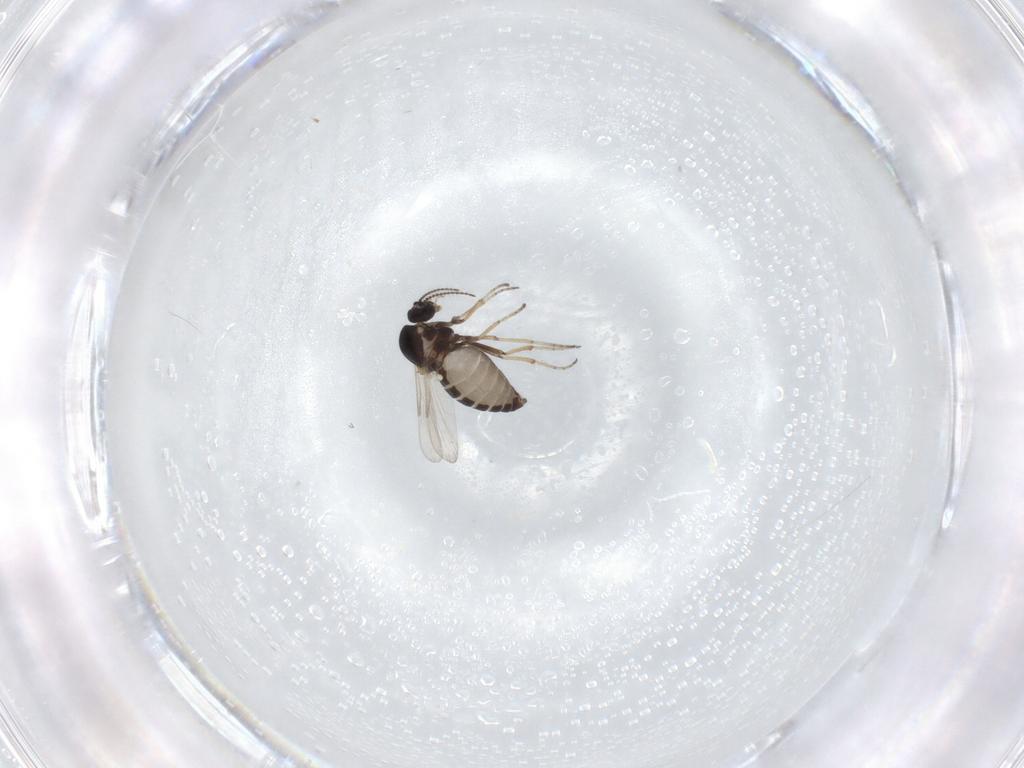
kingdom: Animalia
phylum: Arthropoda
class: Insecta
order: Diptera
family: Ceratopogonidae
